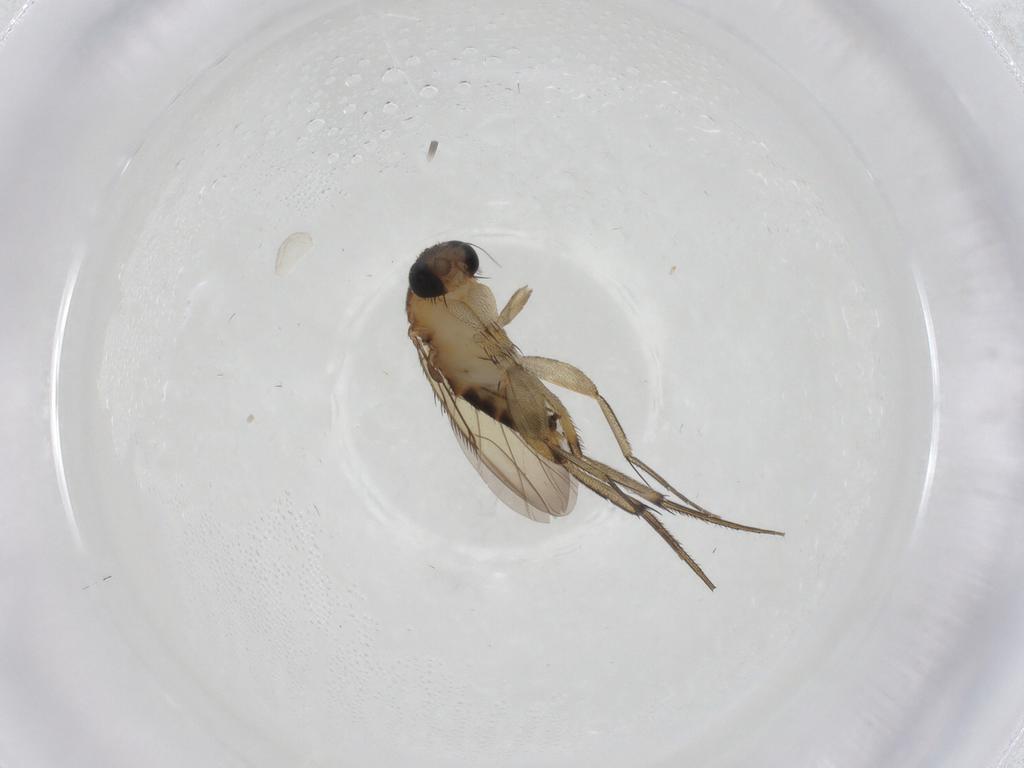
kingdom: Animalia
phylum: Arthropoda
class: Insecta
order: Diptera
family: Phoridae
